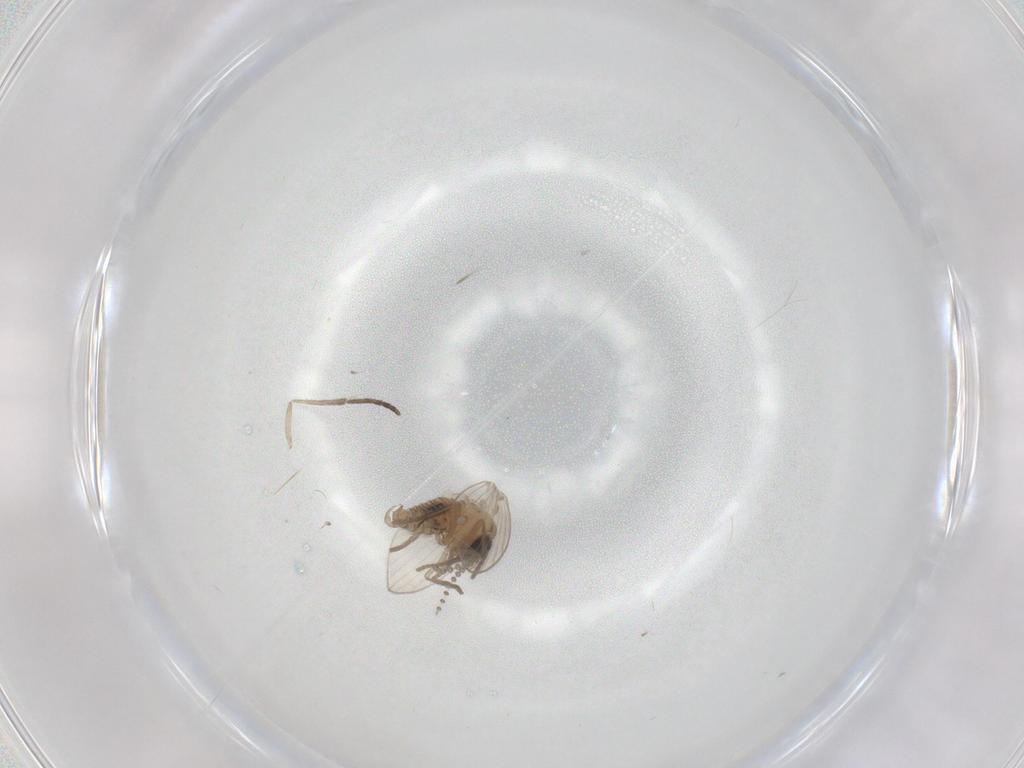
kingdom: Animalia
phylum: Arthropoda
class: Insecta
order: Diptera
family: Psychodidae
